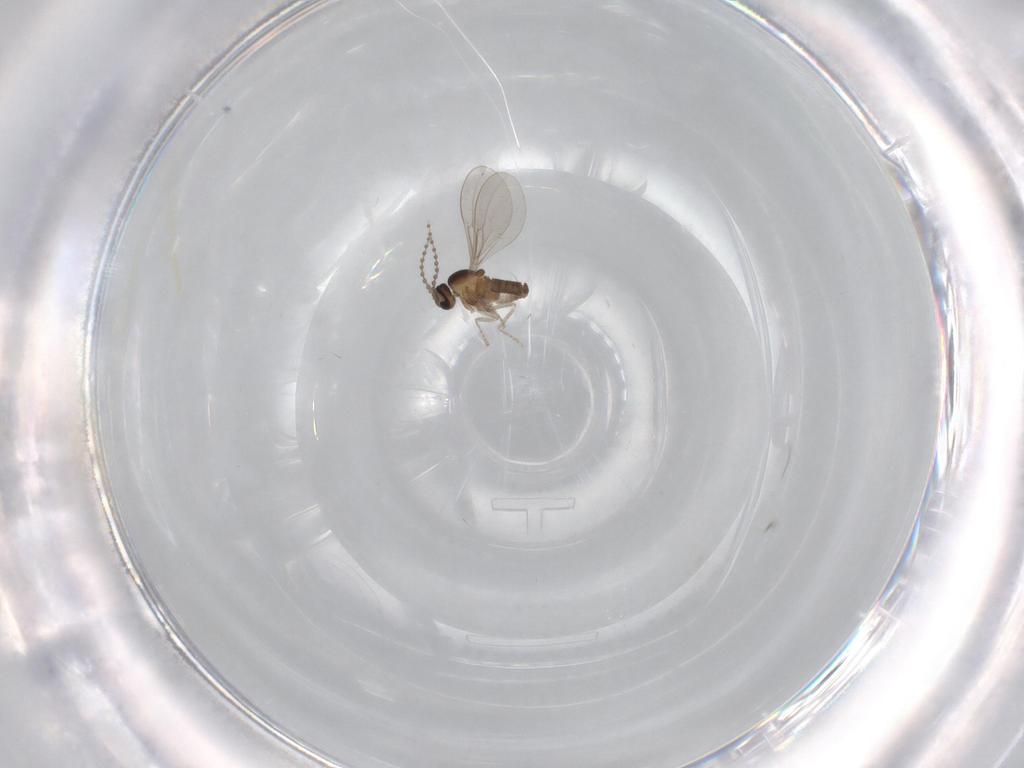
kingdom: Animalia
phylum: Arthropoda
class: Insecta
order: Diptera
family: Cecidomyiidae
